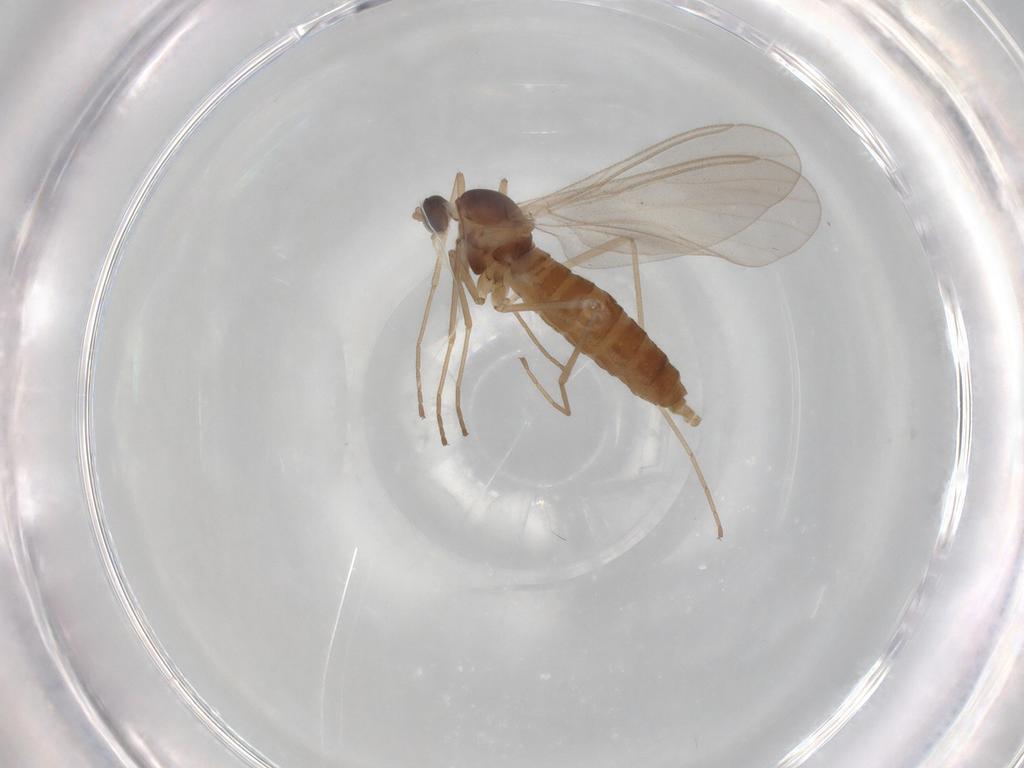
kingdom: Animalia
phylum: Arthropoda
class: Insecta
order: Diptera
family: Cecidomyiidae
